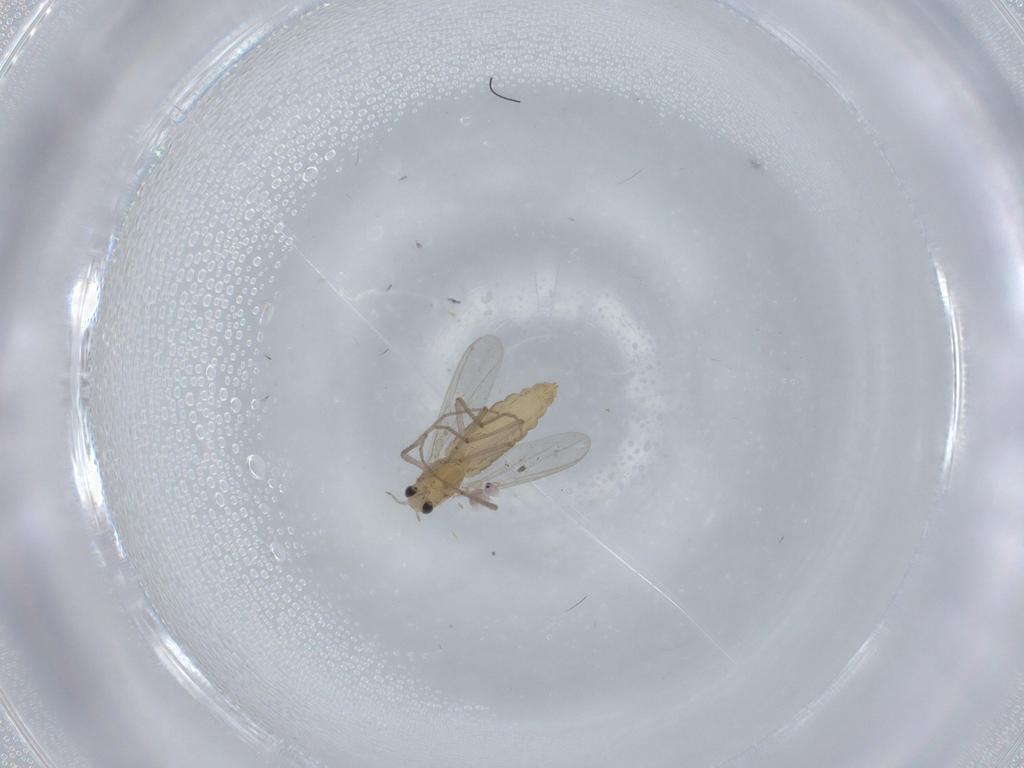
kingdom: Animalia
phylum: Arthropoda
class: Insecta
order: Diptera
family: Chironomidae
